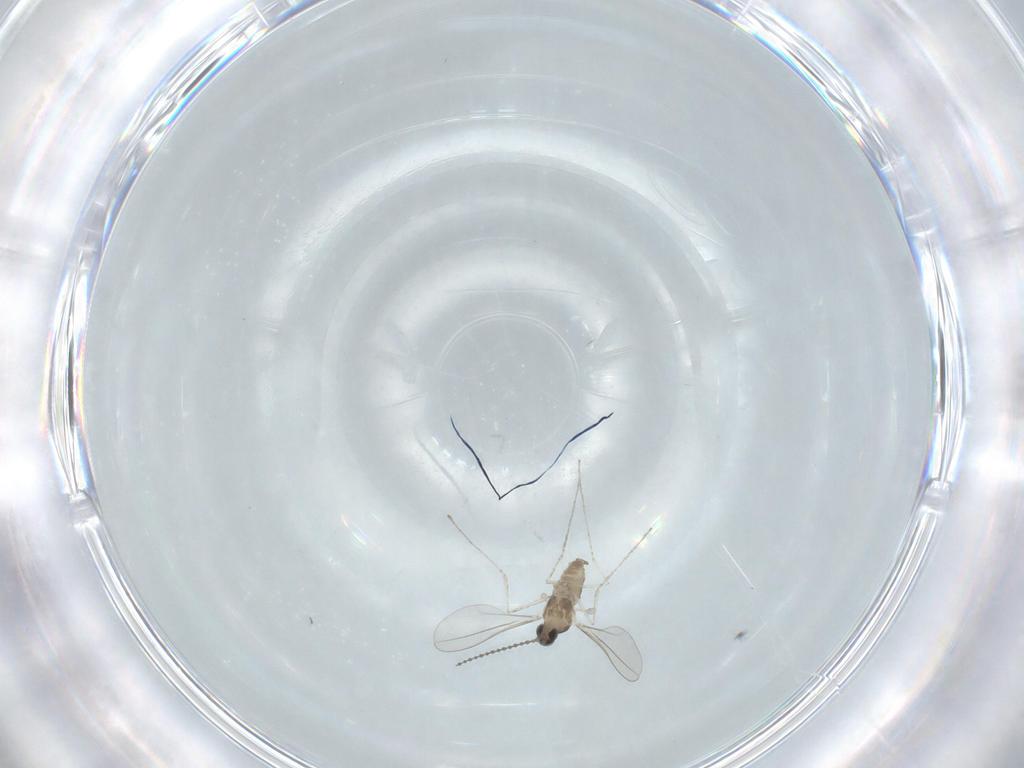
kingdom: Animalia
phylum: Arthropoda
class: Insecta
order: Diptera
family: Cecidomyiidae
